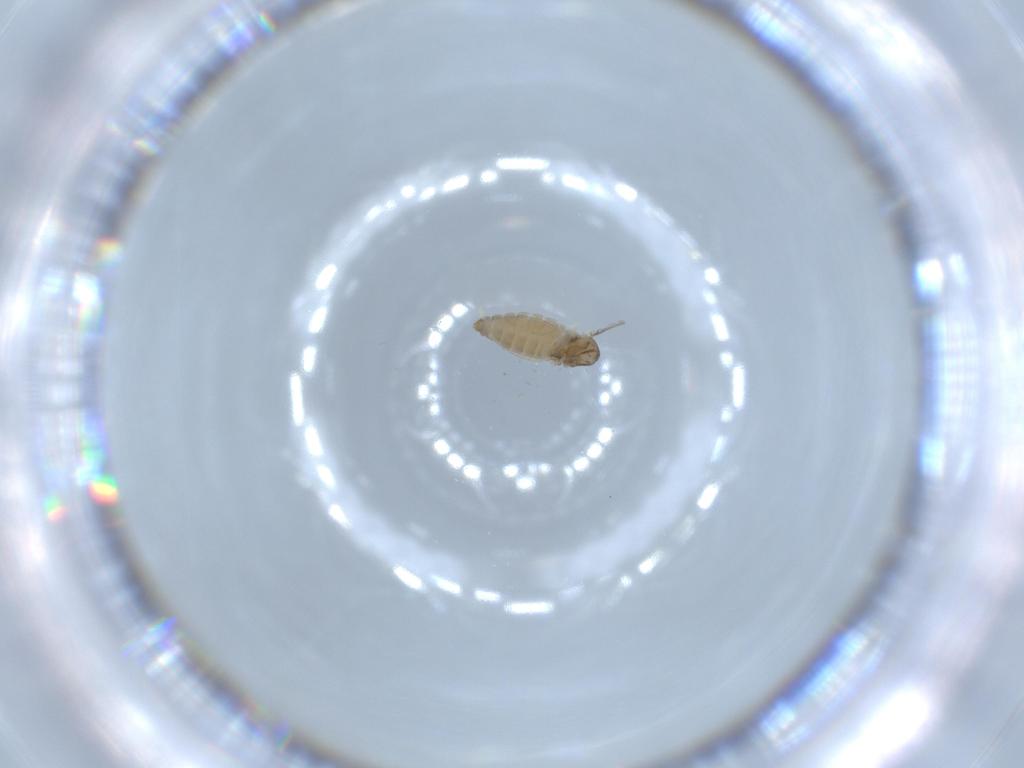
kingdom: Animalia
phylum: Arthropoda
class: Insecta
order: Diptera
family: Sciaridae
